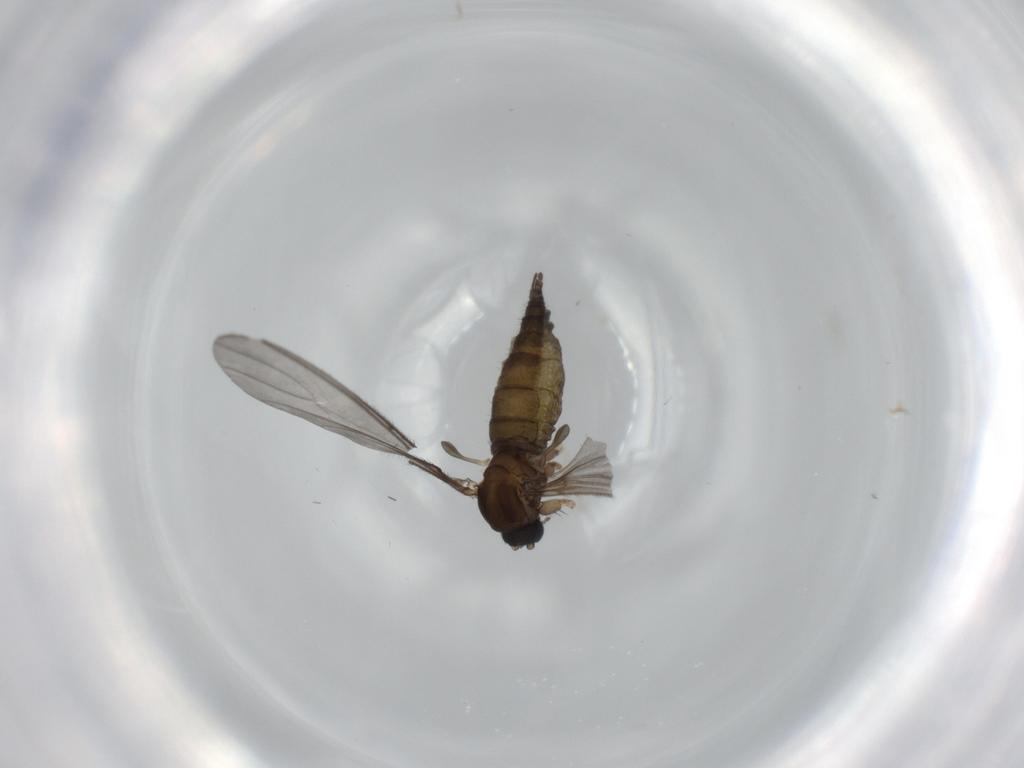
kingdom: Animalia
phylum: Arthropoda
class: Insecta
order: Diptera
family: Sciaridae
